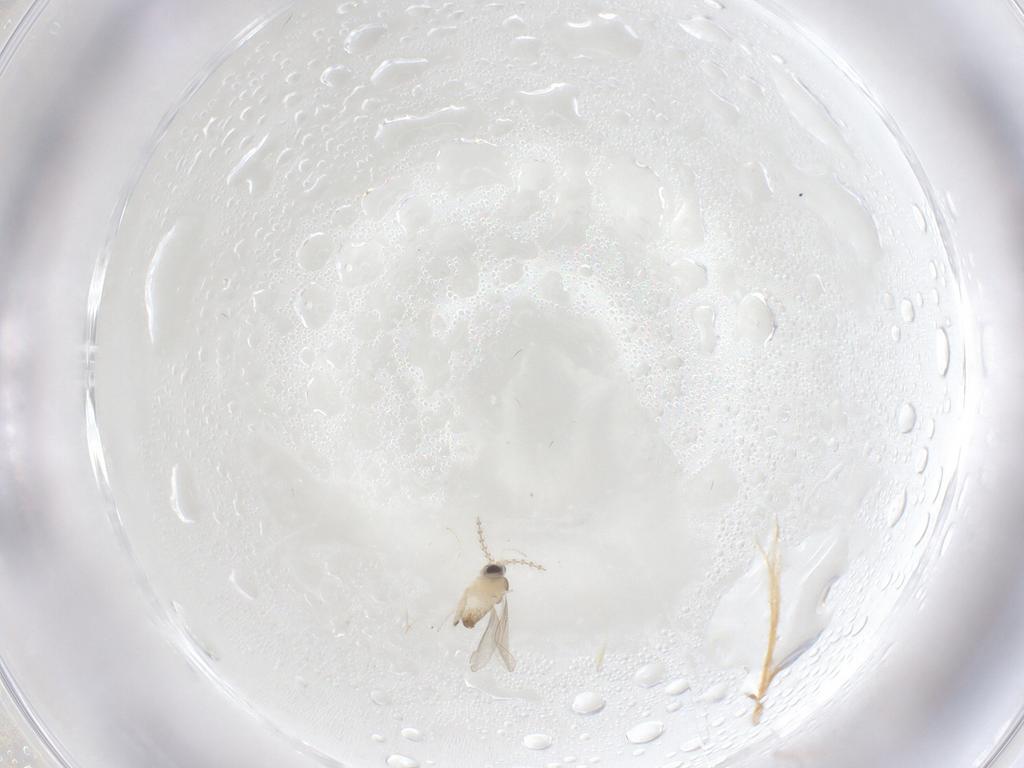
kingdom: Animalia
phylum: Arthropoda
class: Insecta
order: Diptera
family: Cecidomyiidae
